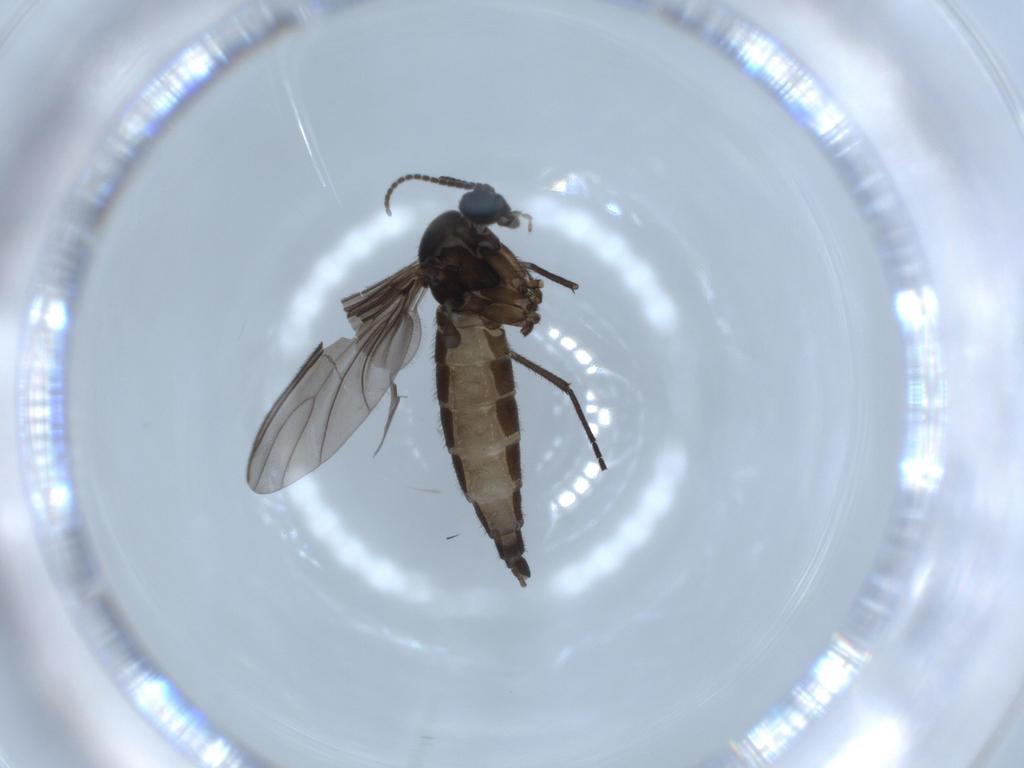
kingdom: Animalia
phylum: Arthropoda
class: Insecta
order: Diptera
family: Sciaridae
